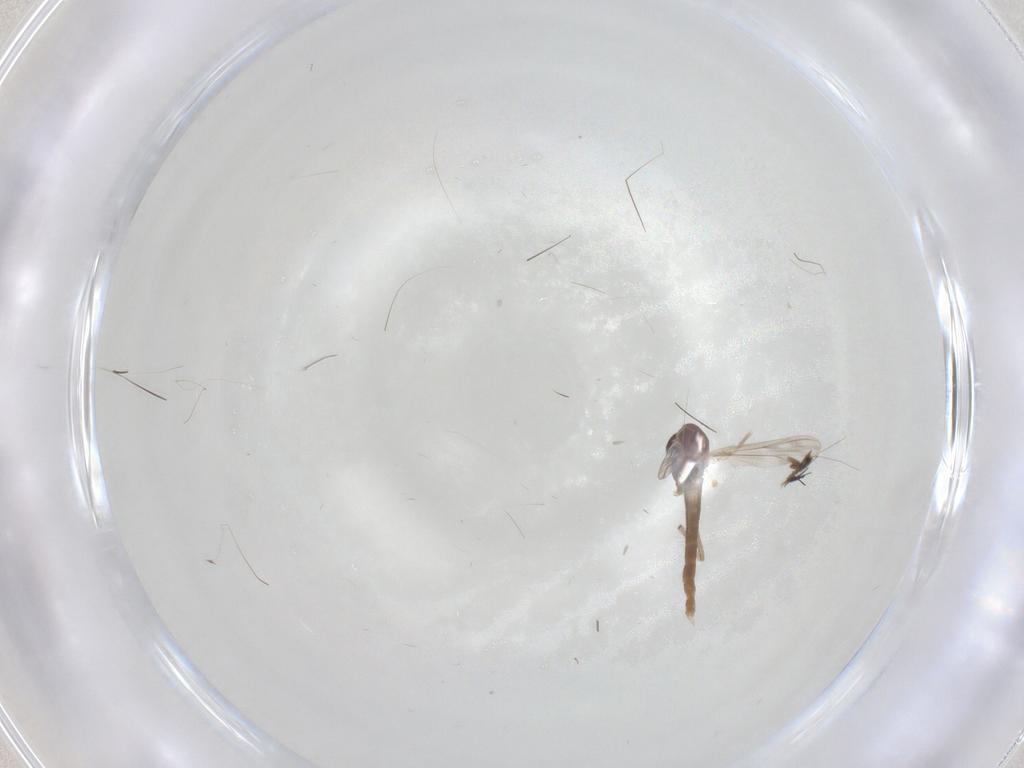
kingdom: Animalia
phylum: Arthropoda
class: Insecta
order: Diptera
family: Chironomidae
